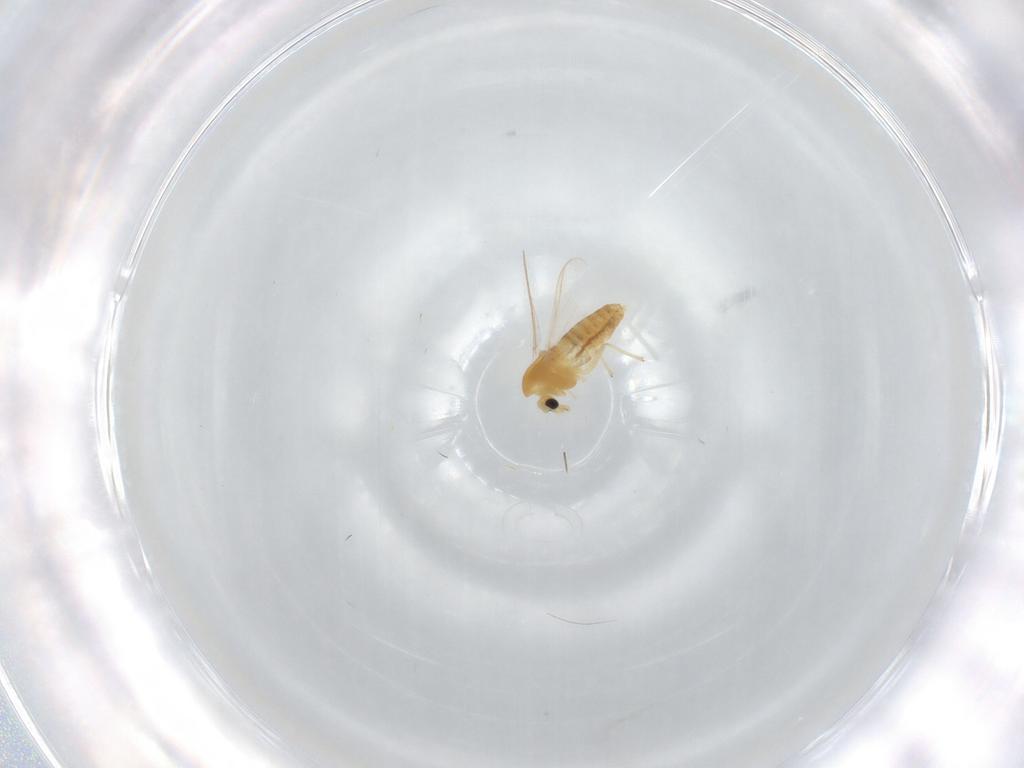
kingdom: Animalia
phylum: Arthropoda
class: Insecta
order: Diptera
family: Chironomidae
